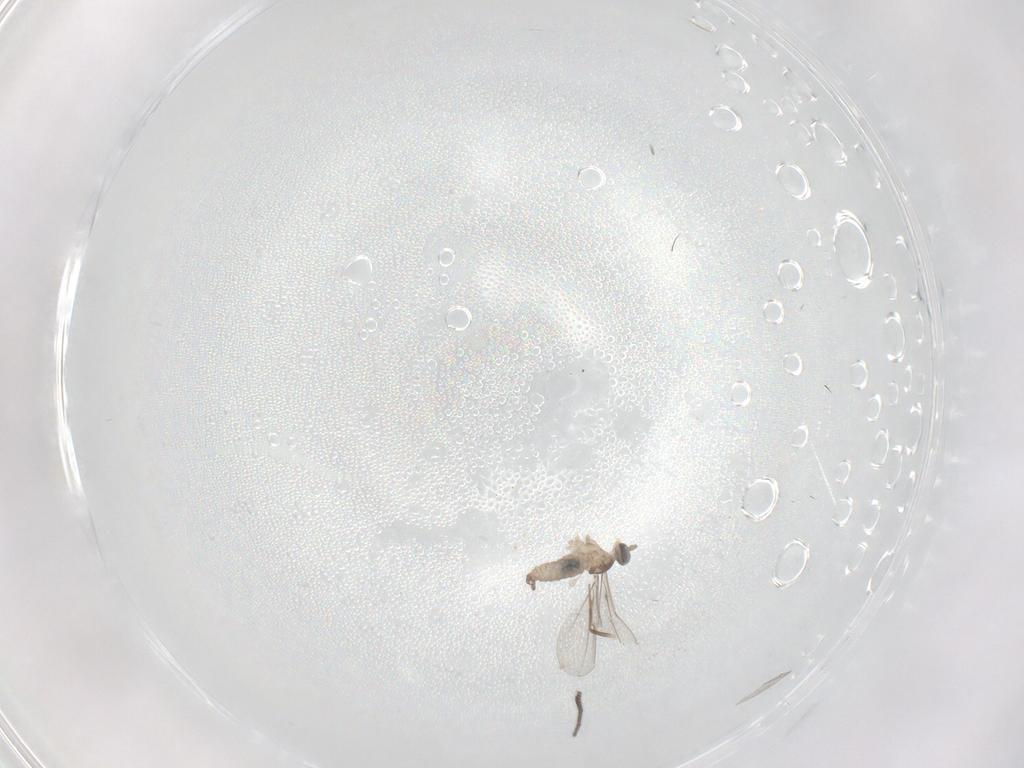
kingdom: Animalia
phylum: Arthropoda
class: Insecta
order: Diptera
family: Cecidomyiidae
